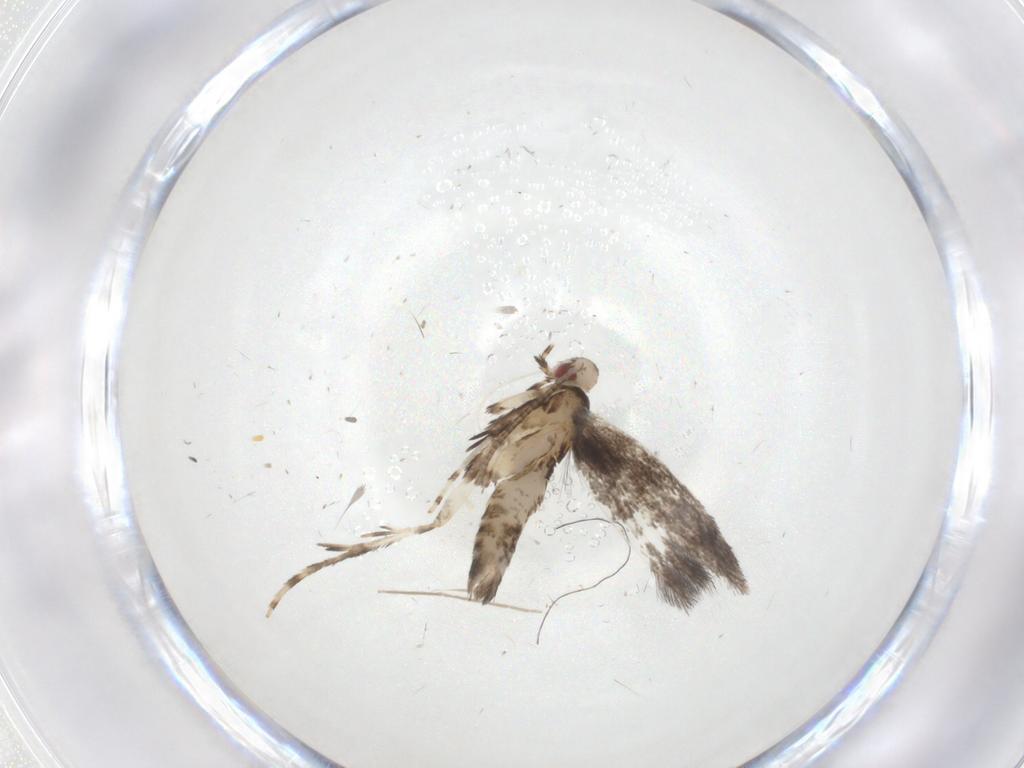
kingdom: Animalia
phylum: Arthropoda
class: Insecta
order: Lepidoptera
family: Gracillariidae
